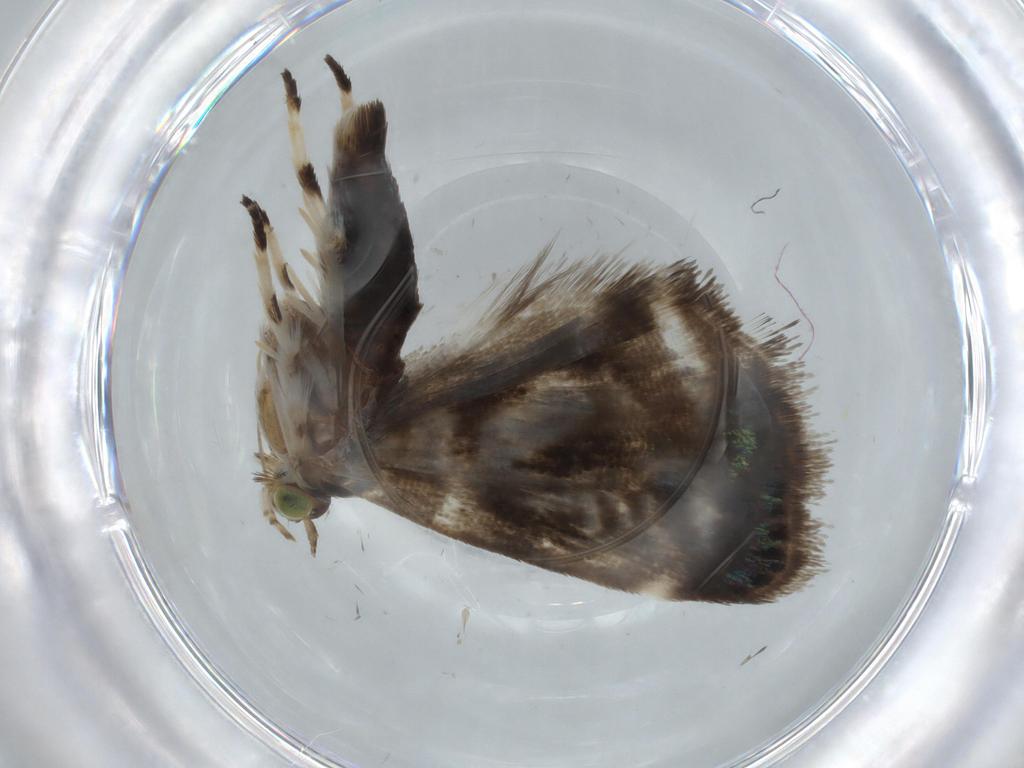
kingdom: Animalia
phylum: Arthropoda
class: Insecta
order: Lepidoptera
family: Choreutidae
